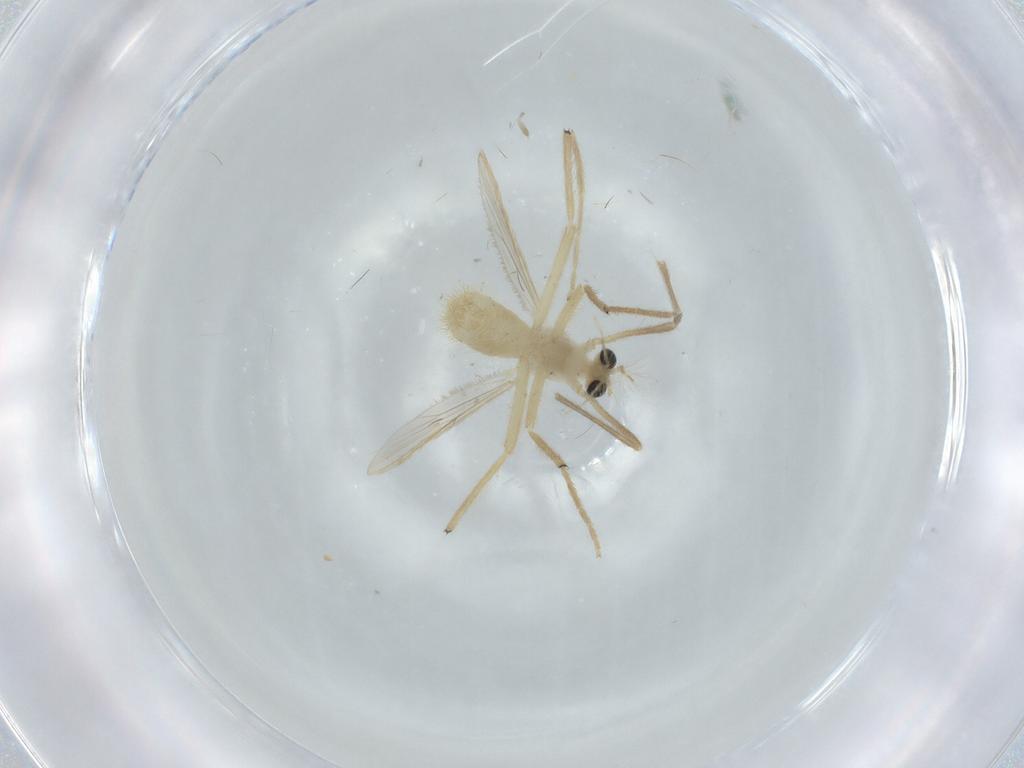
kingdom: Animalia
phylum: Arthropoda
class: Insecta
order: Diptera
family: Chironomidae
